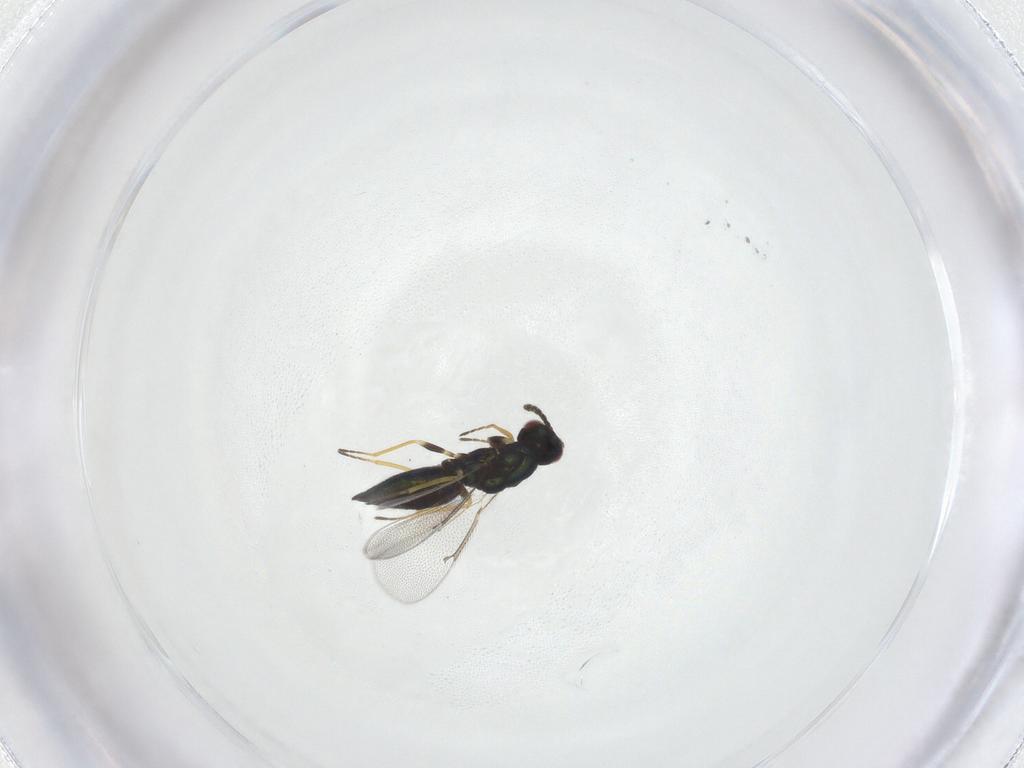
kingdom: Animalia
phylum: Arthropoda
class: Insecta
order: Hymenoptera
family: Eulophidae
